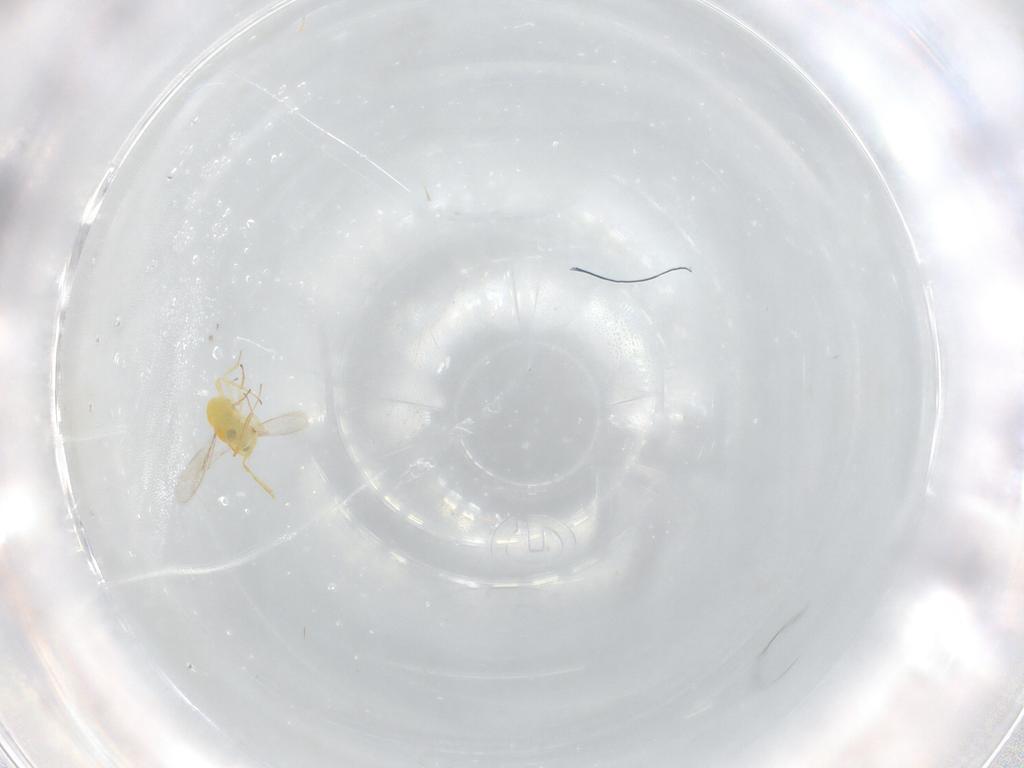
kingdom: Animalia
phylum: Arthropoda
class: Insecta
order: Hymenoptera
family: Aphelinidae
